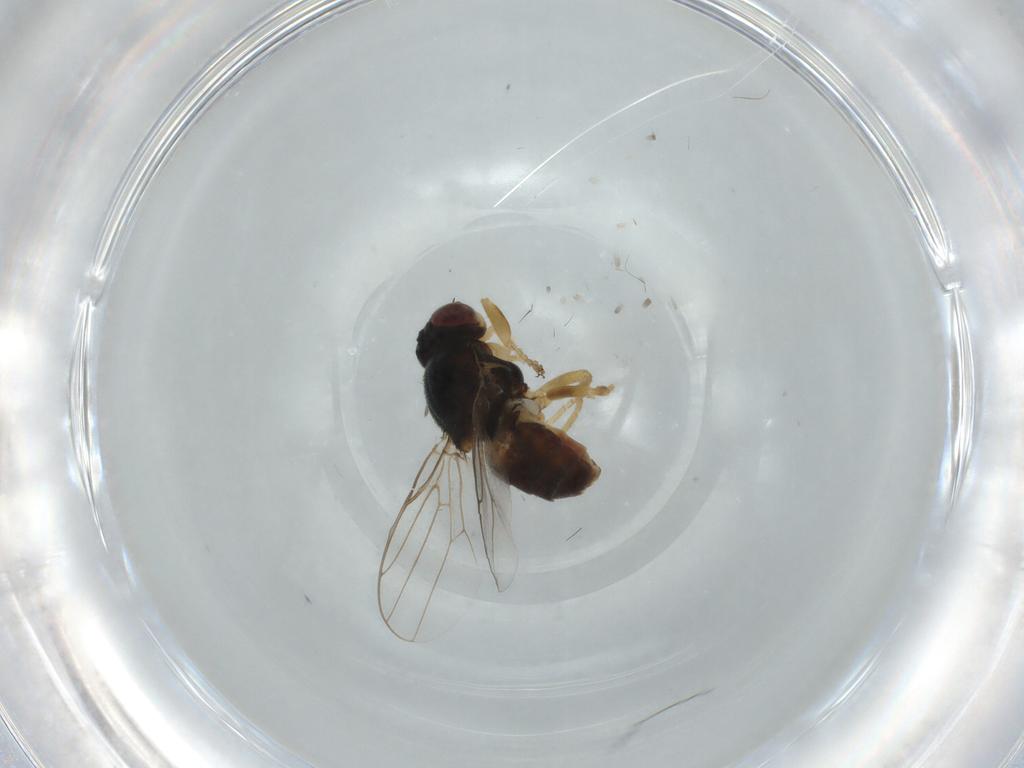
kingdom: Animalia
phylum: Arthropoda
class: Insecta
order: Diptera
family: Chloropidae
